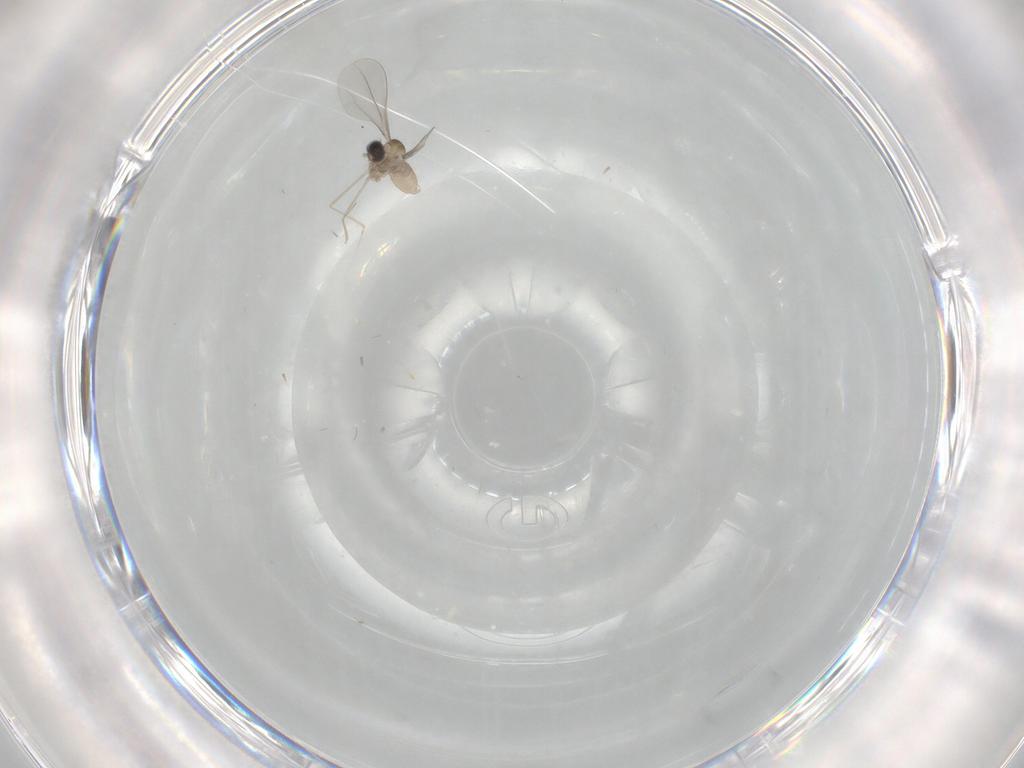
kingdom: Animalia
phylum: Arthropoda
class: Insecta
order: Diptera
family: Cecidomyiidae
